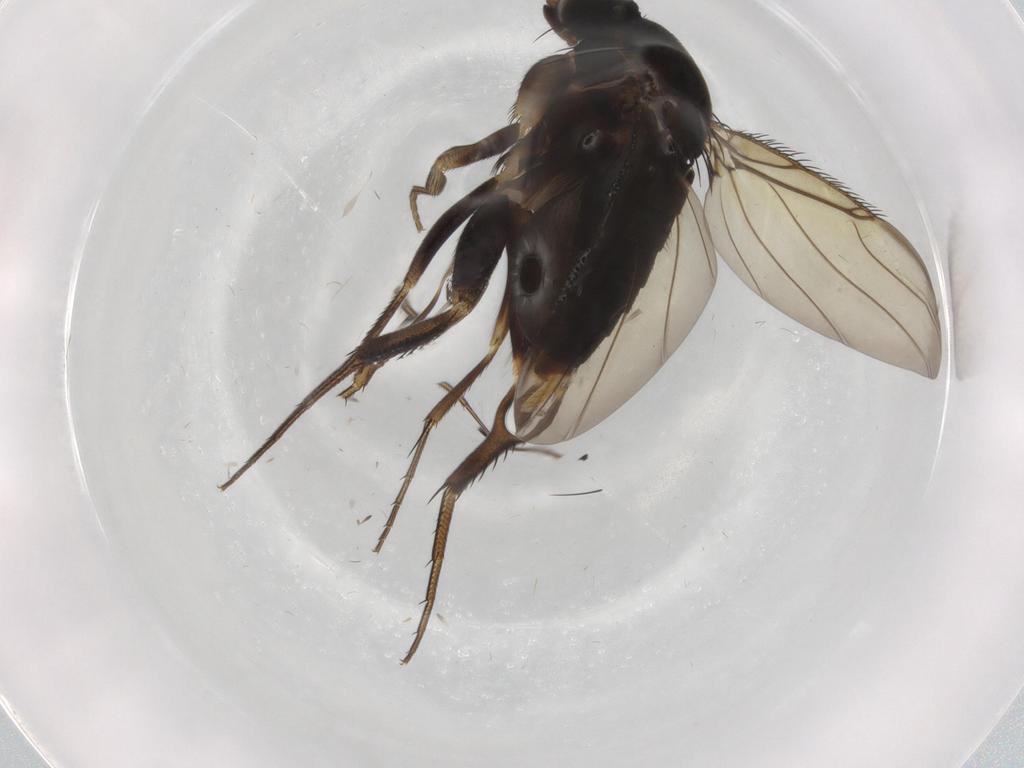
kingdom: Animalia
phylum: Arthropoda
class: Insecta
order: Diptera
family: Phoridae
